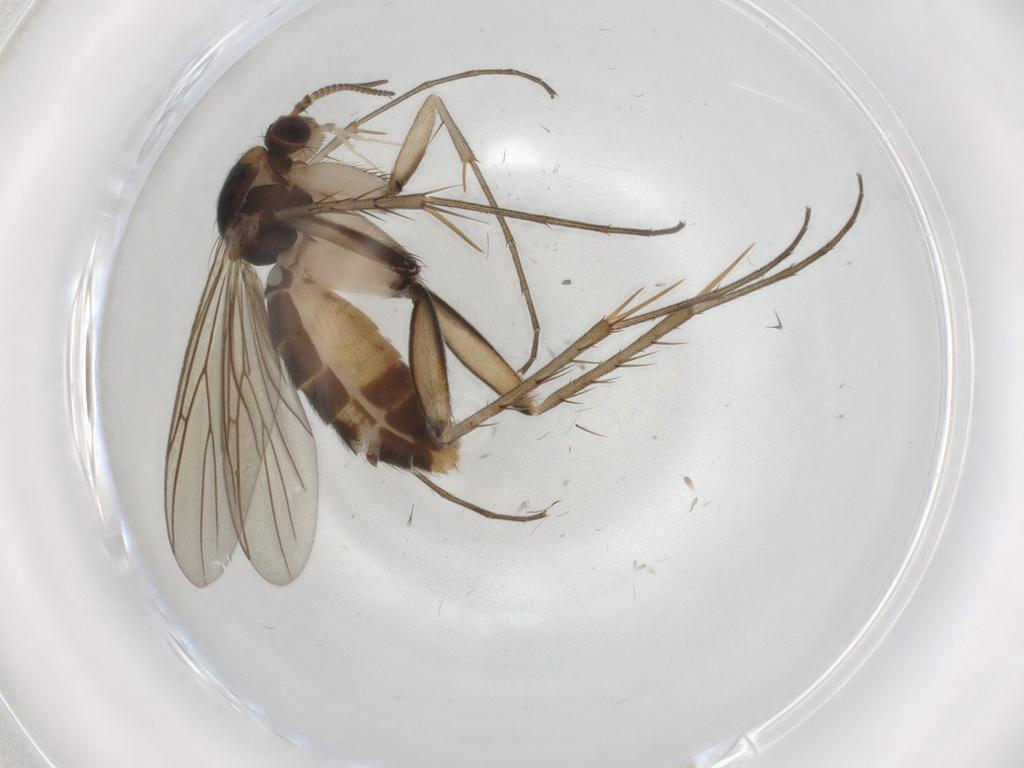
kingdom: Animalia
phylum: Arthropoda
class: Insecta
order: Diptera
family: Mycetophilidae
